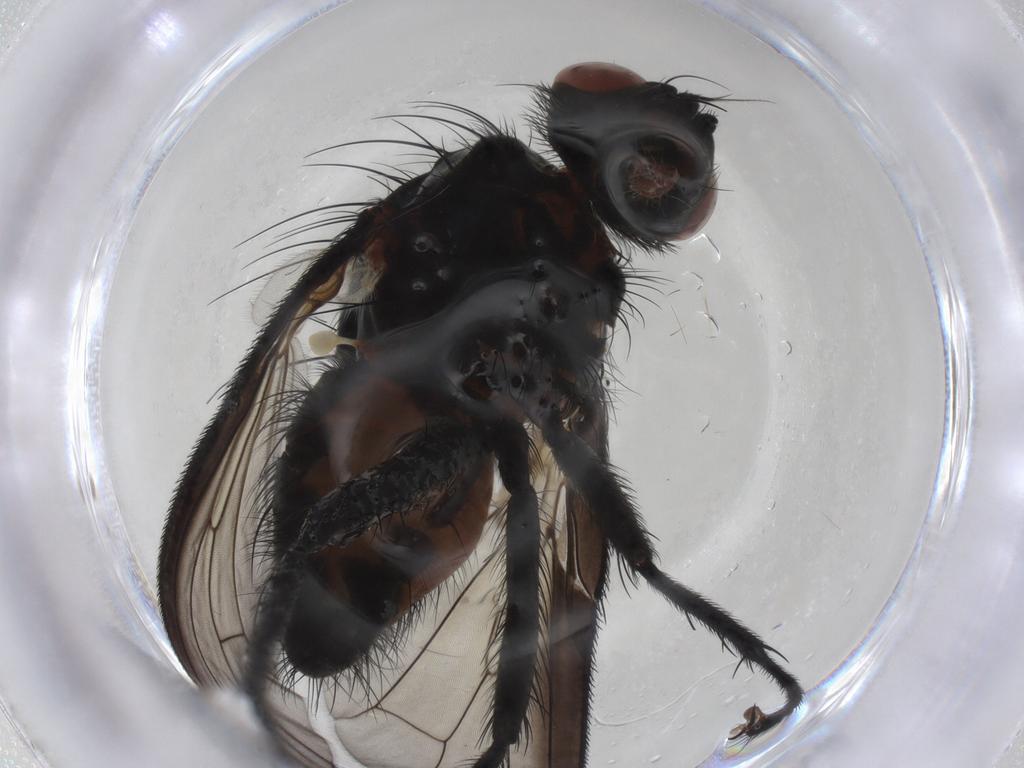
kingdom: Animalia
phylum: Arthropoda
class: Insecta
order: Diptera
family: Anthomyiidae
